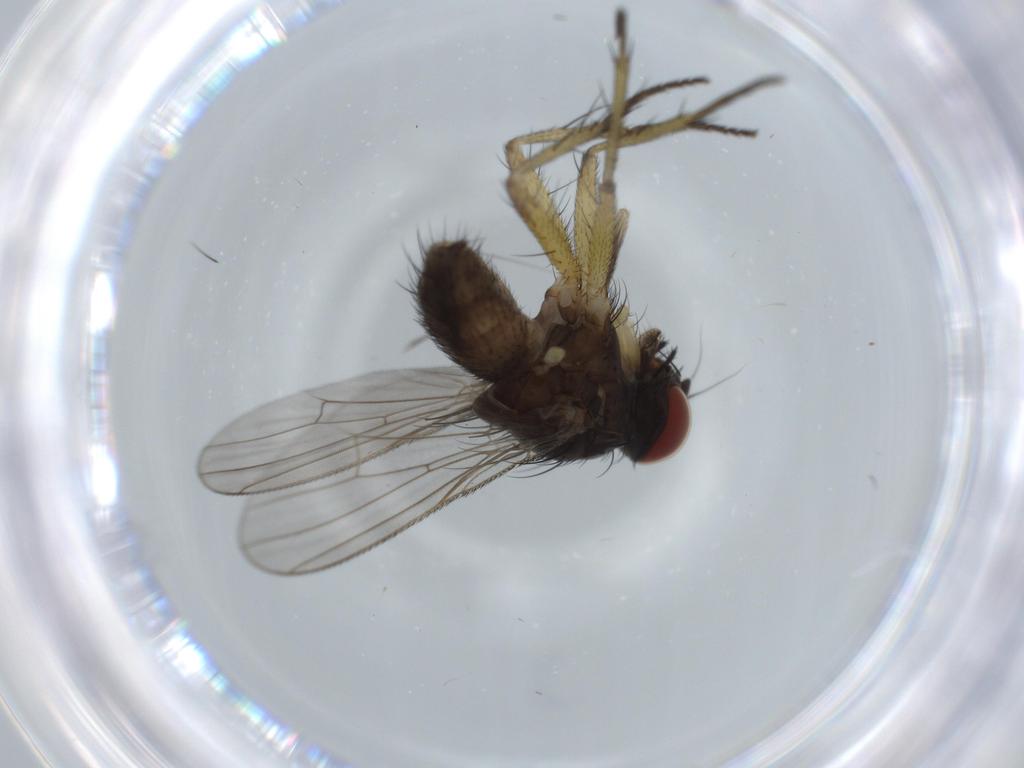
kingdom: Animalia
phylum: Arthropoda
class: Insecta
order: Diptera
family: Muscidae
